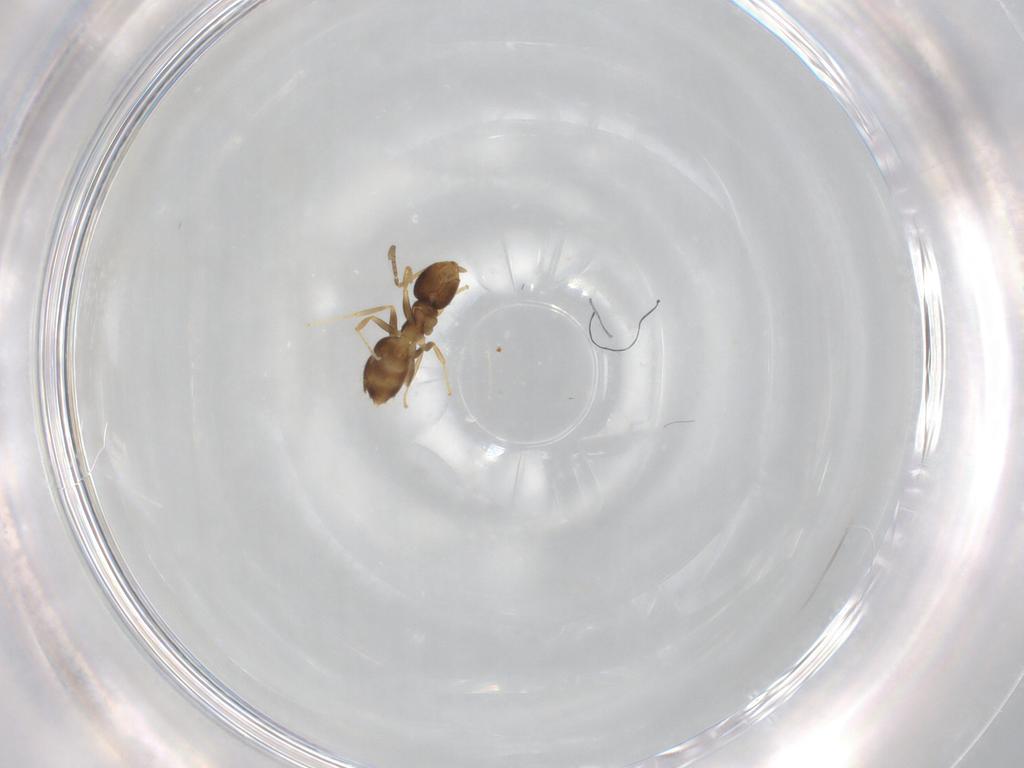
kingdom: Animalia
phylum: Arthropoda
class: Insecta
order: Hymenoptera
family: Formicidae
